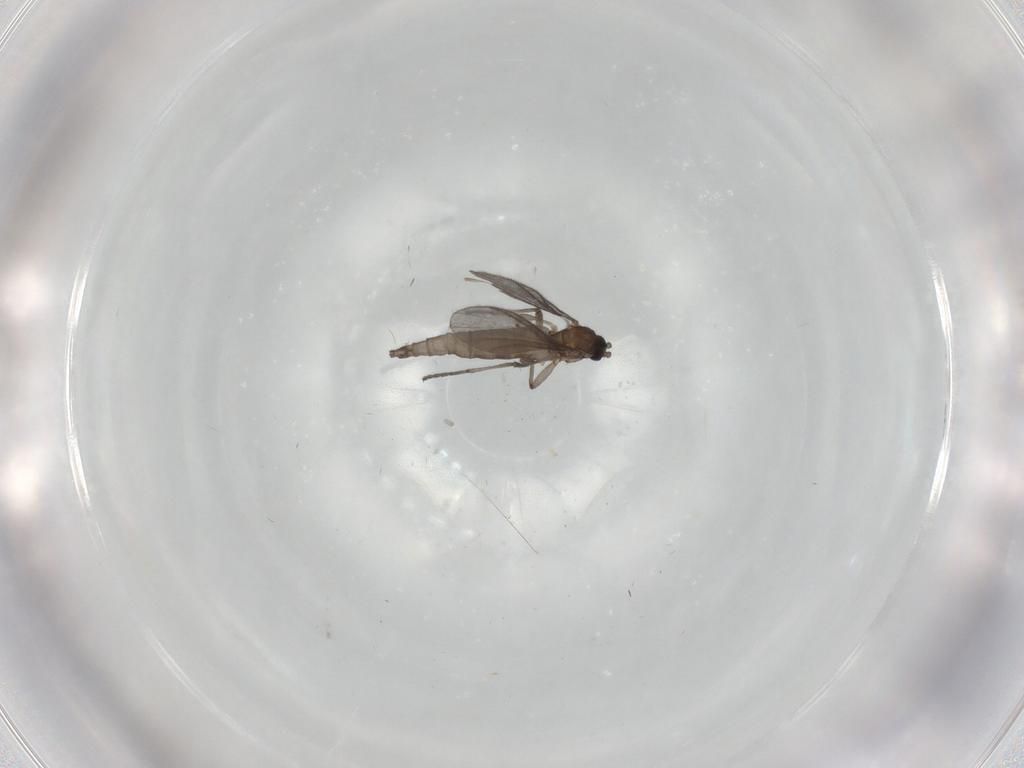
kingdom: Animalia
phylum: Arthropoda
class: Insecta
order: Diptera
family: Sciaridae
